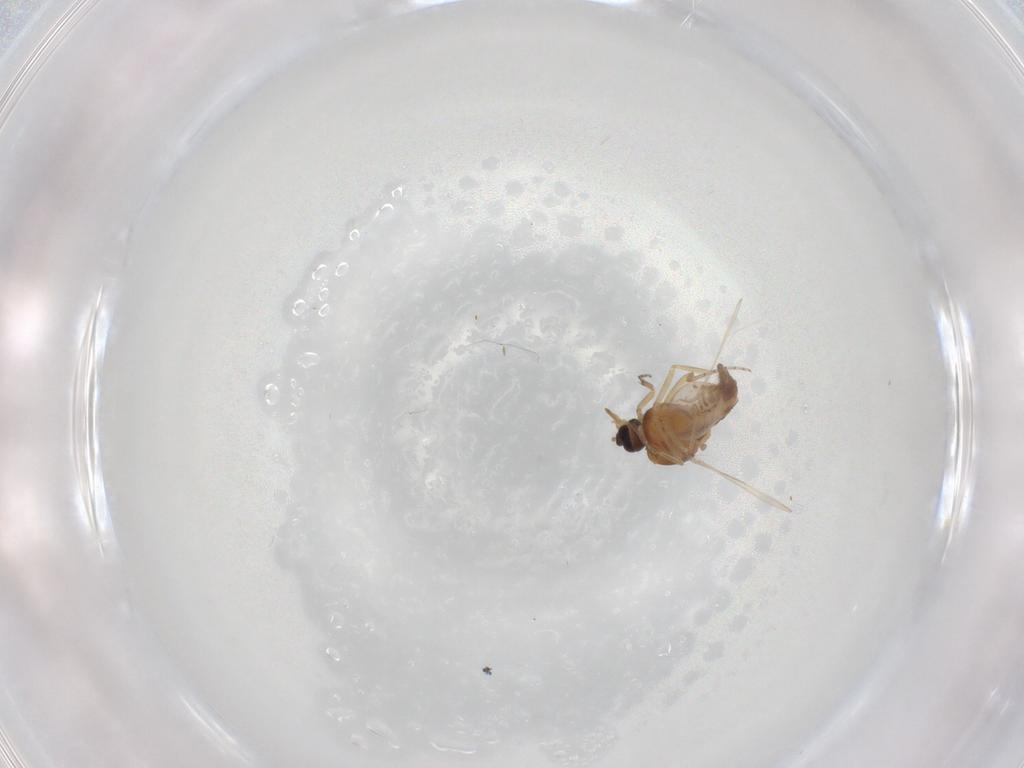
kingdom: Animalia
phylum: Arthropoda
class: Insecta
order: Diptera
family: Ceratopogonidae
